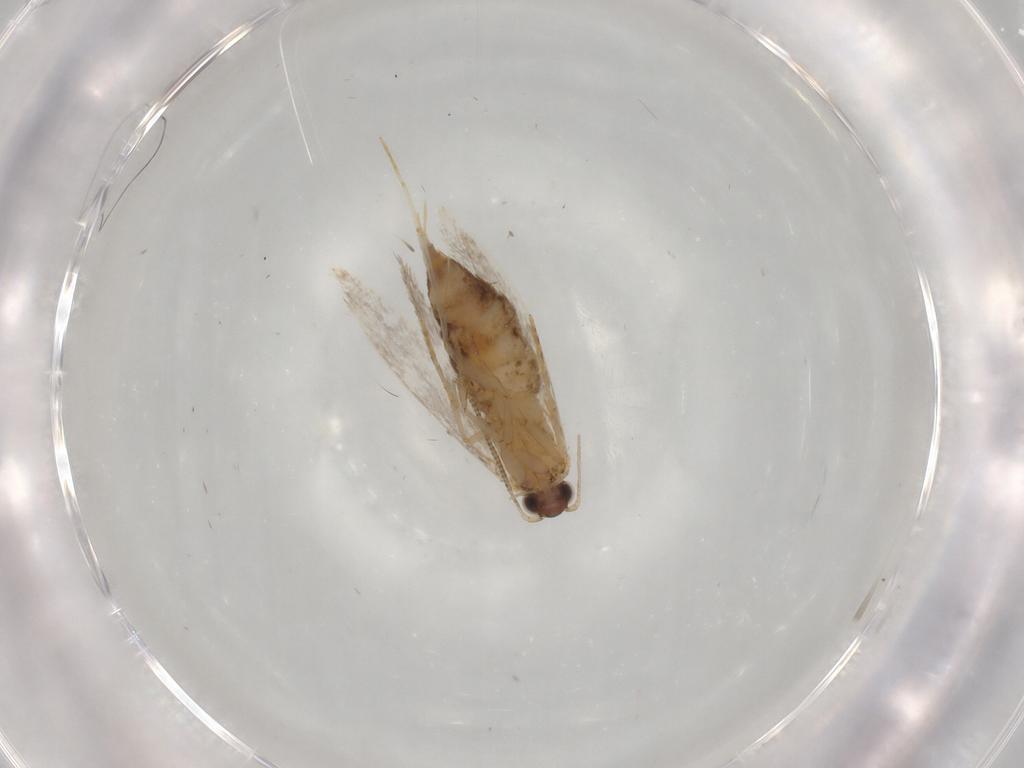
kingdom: Animalia
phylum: Arthropoda
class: Insecta
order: Lepidoptera
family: Tineidae
